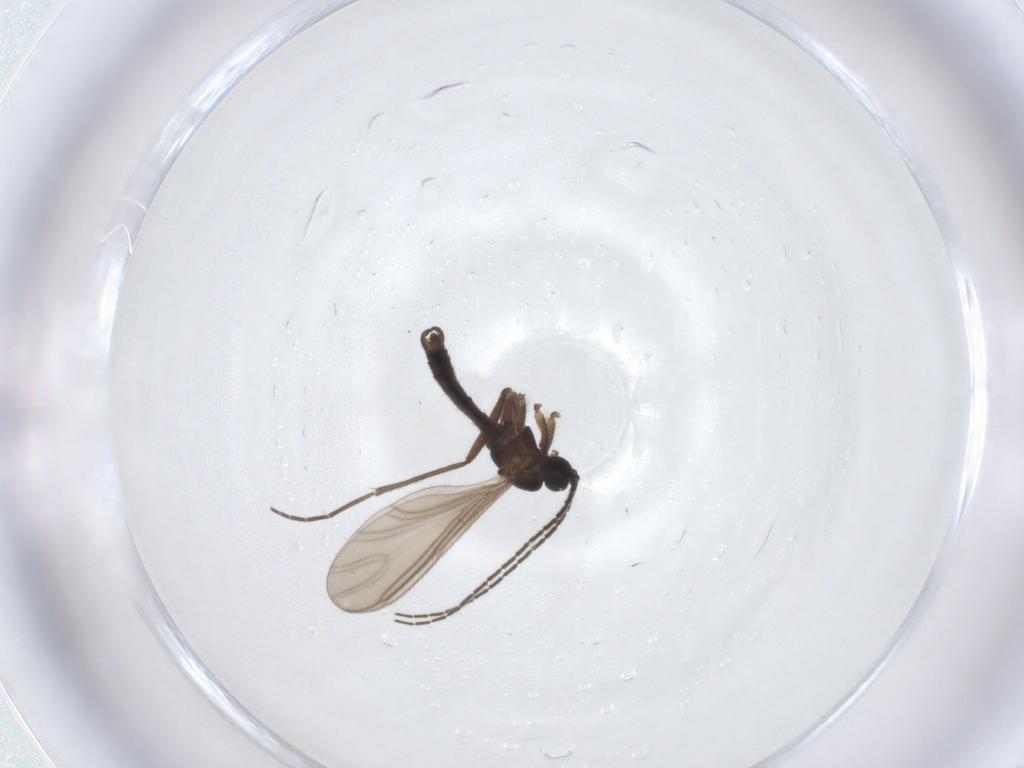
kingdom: Animalia
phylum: Arthropoda
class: Insecta
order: Diptera
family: Sciaridae
